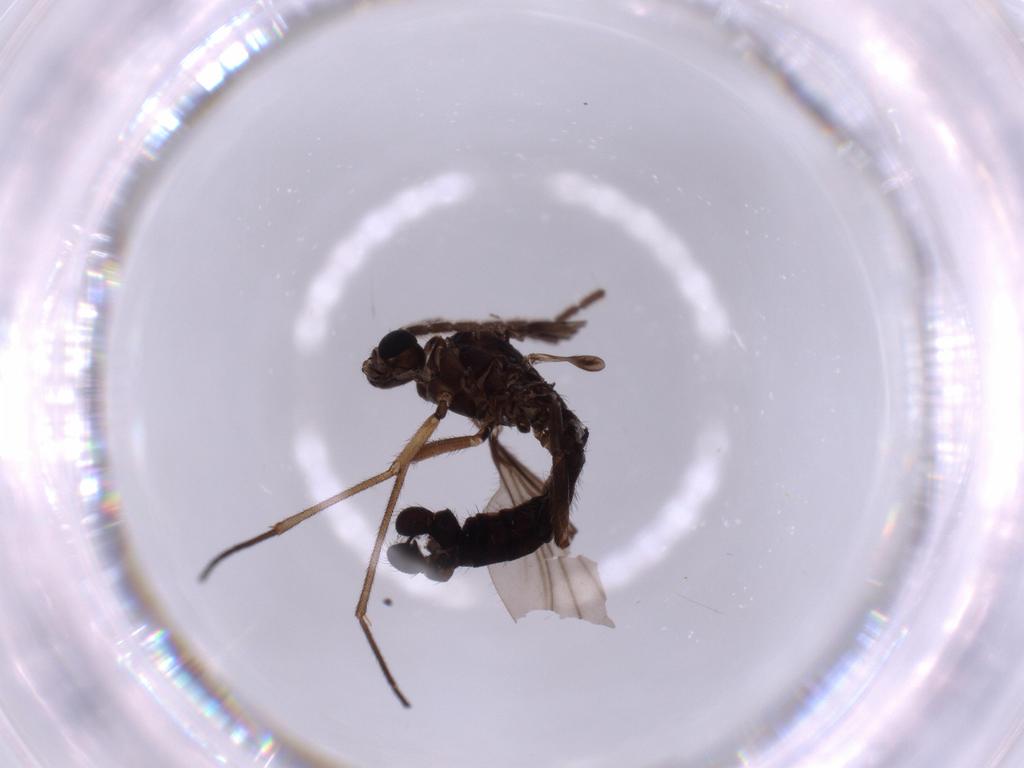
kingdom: Animalia
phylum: Arthropoda
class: Insecta
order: Diptera
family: Sciaridae
